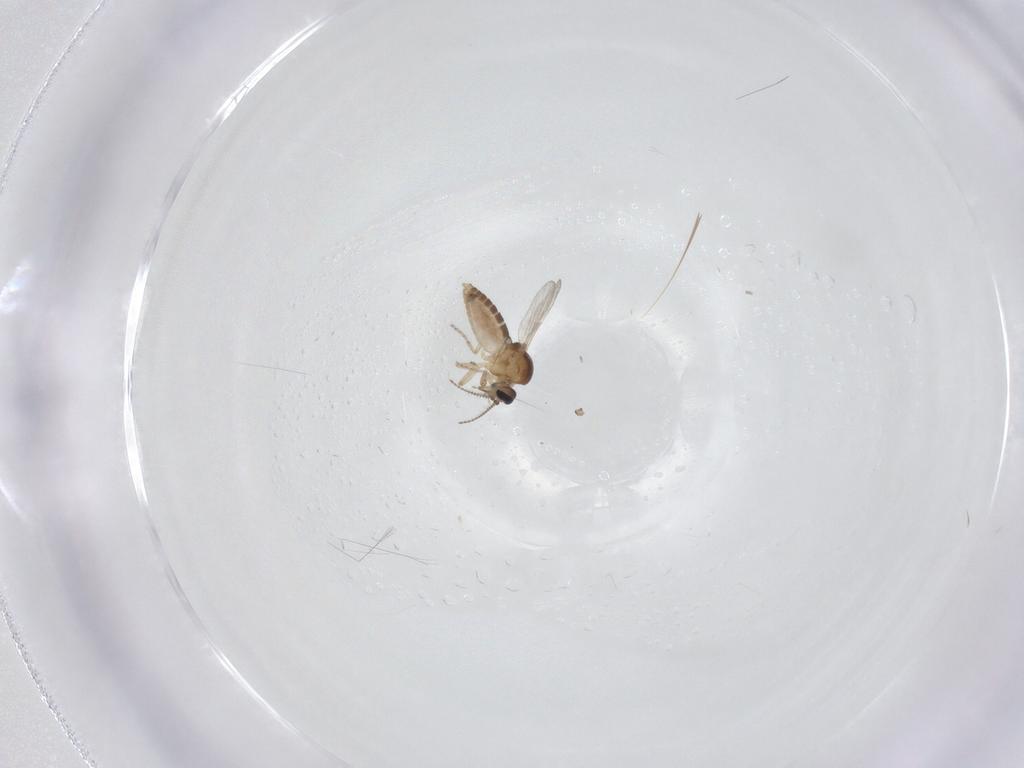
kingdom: Animalia
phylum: Arthropoda
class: Insecta
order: Diptera
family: Ceratopogonidae
